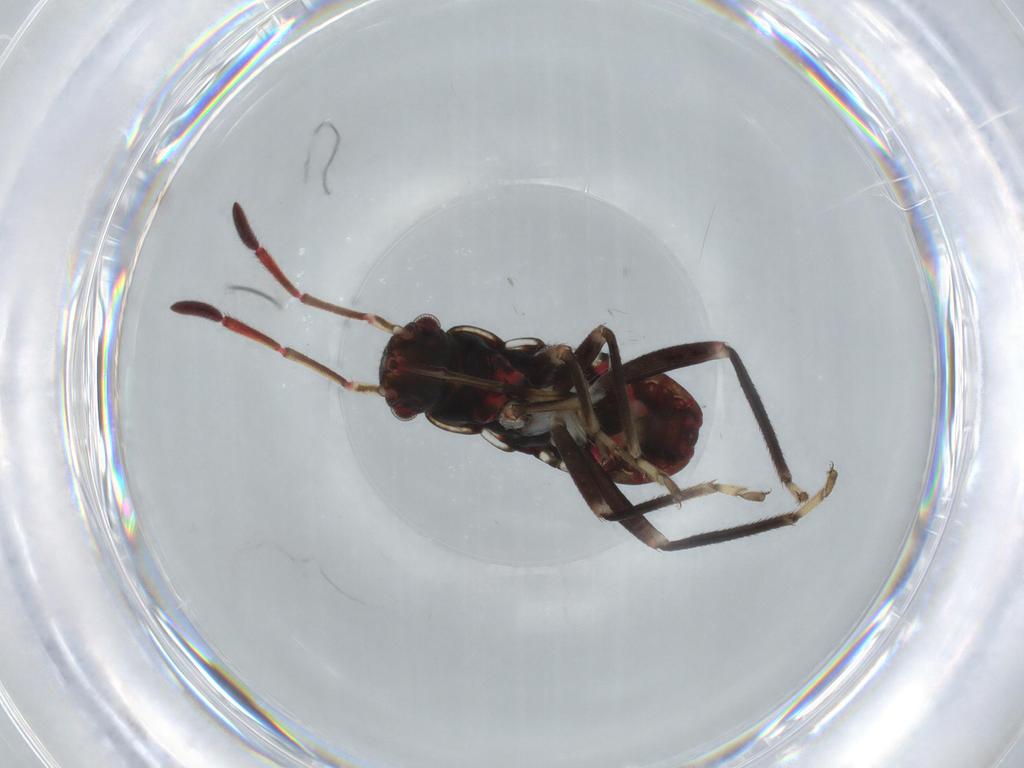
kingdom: Animalia
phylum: Arthropoda
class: Insecta
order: Hemiptera
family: Rhyparochromidae
